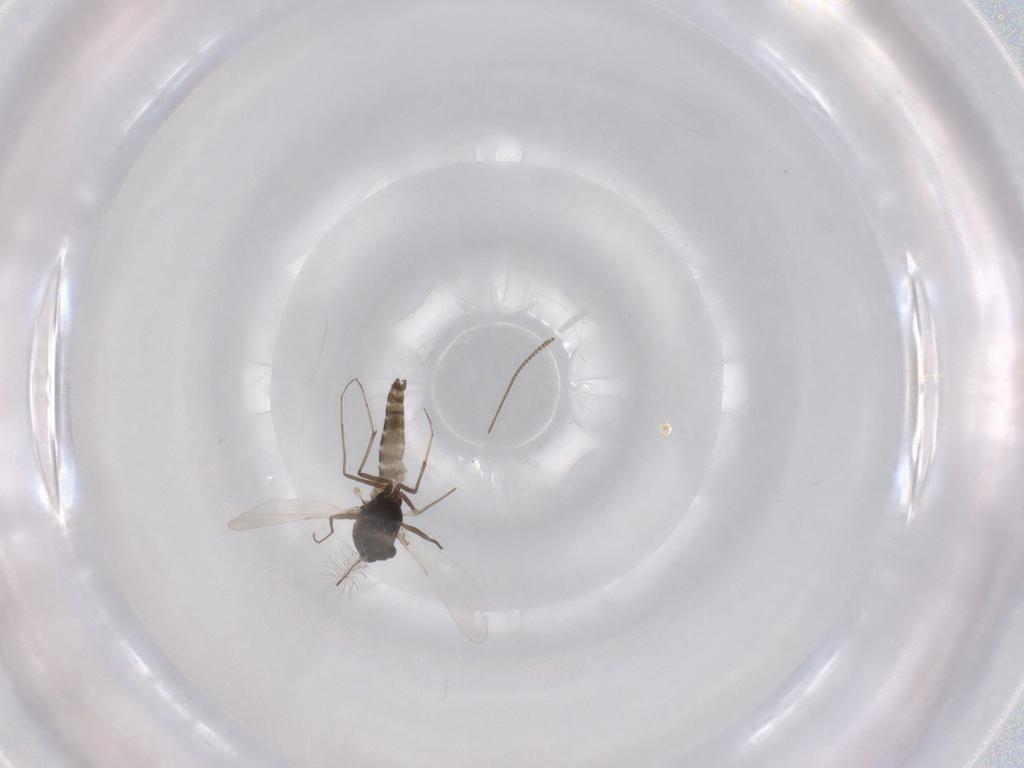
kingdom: Animalia
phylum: Arthropoda
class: Insecta
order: Diptera
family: Chironomidae
